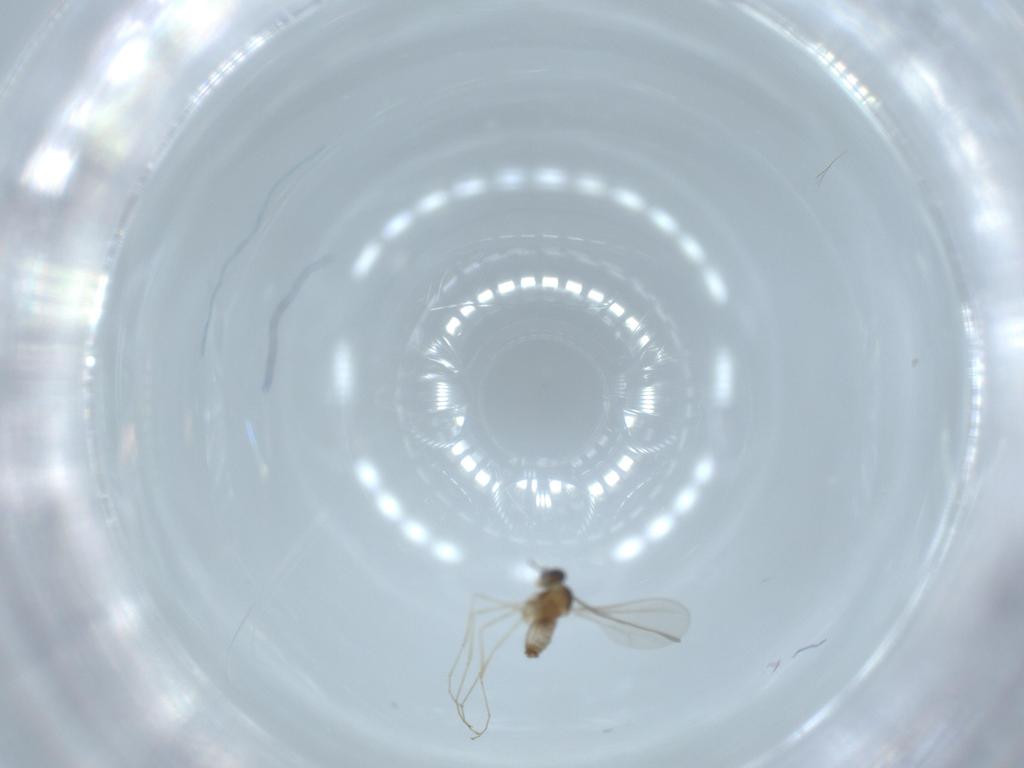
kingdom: Animalia
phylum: Arthropoda
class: Insecta
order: Diptera
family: Cecidomyiidae
